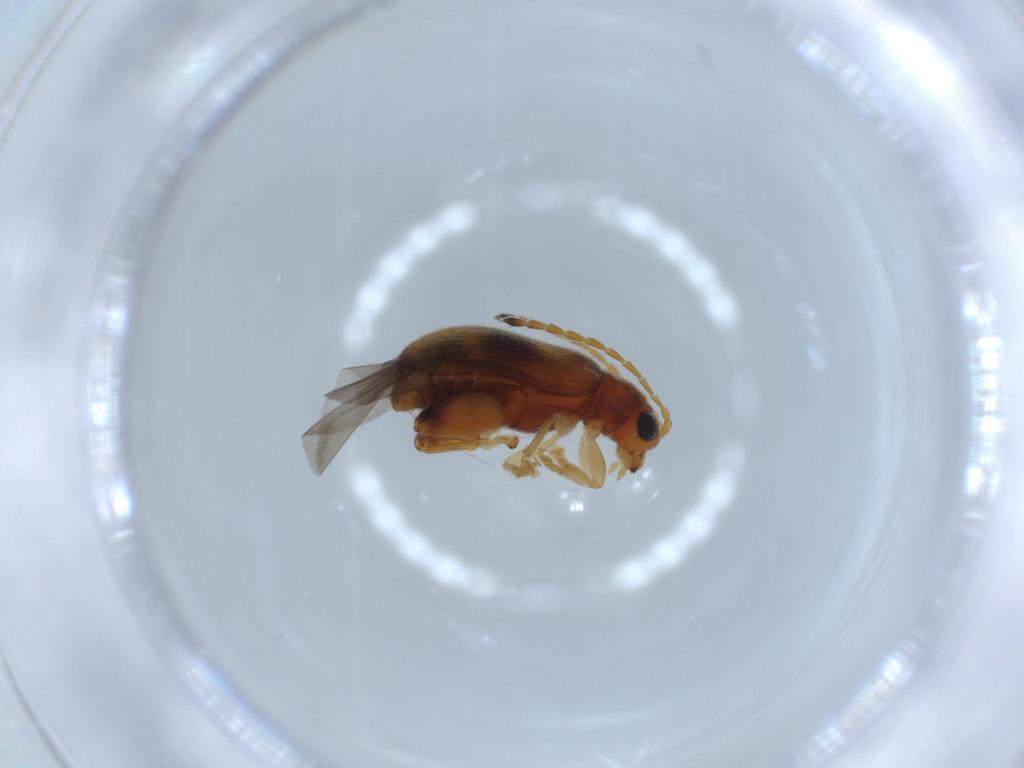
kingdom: Animalia
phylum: Arthropoda
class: Insecta
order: Coleoptera
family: Chrysomelidae
